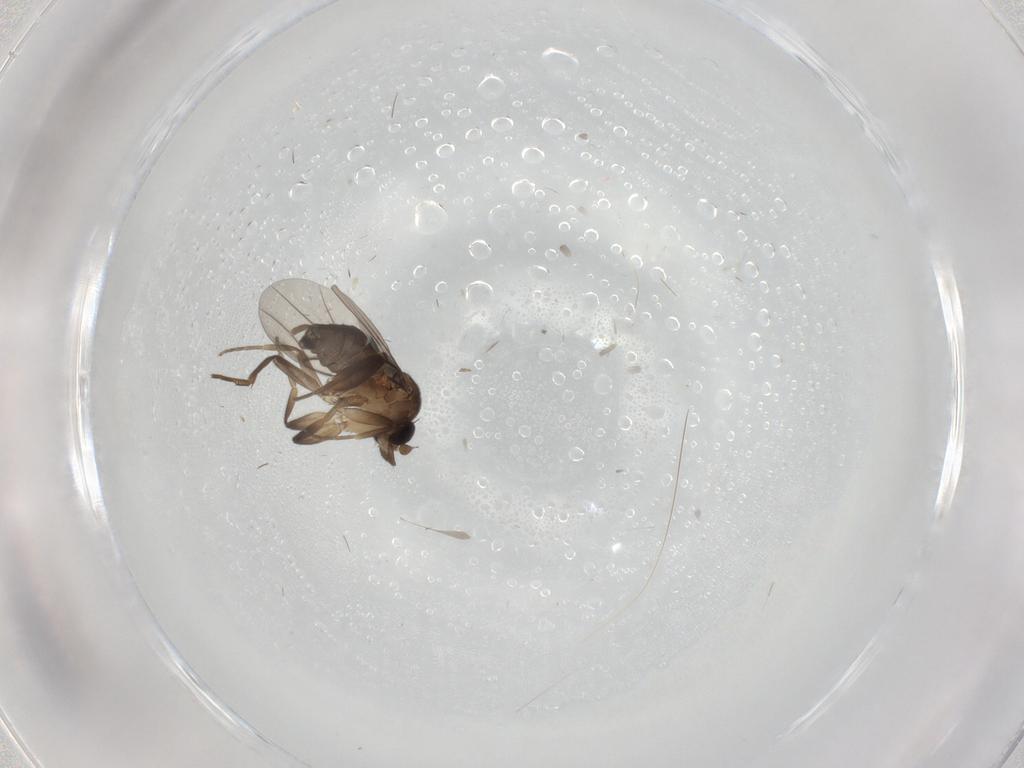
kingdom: Animalia
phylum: Arthropoda
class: Insecta
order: Diptera
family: Phoridae
